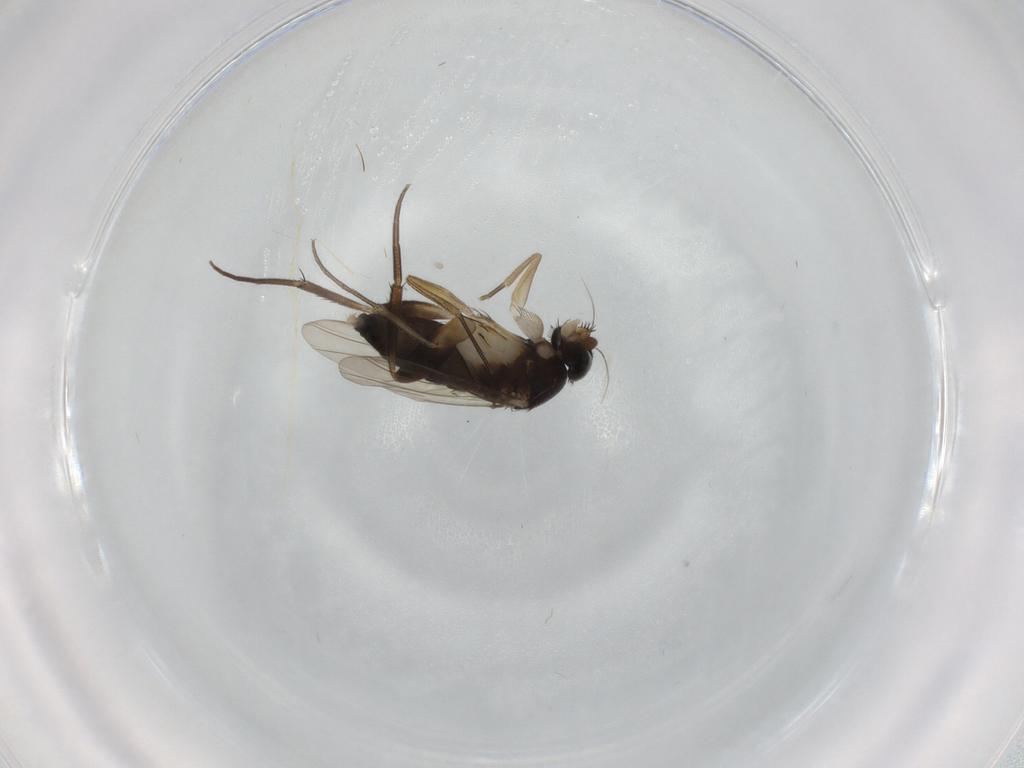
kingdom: Animalia
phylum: Arthropoda
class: Insecta
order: Diptera
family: Phoridae
